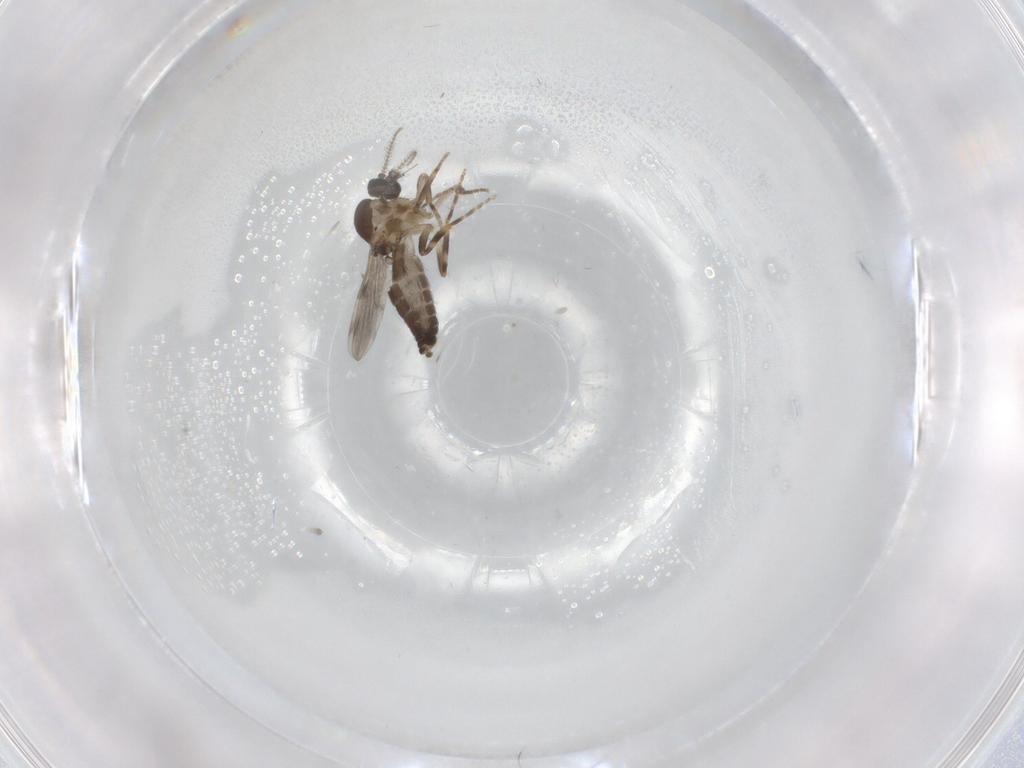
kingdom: Animalia
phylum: Arthropoda
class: Insecta
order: Diptera
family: Ceratopogonidae
